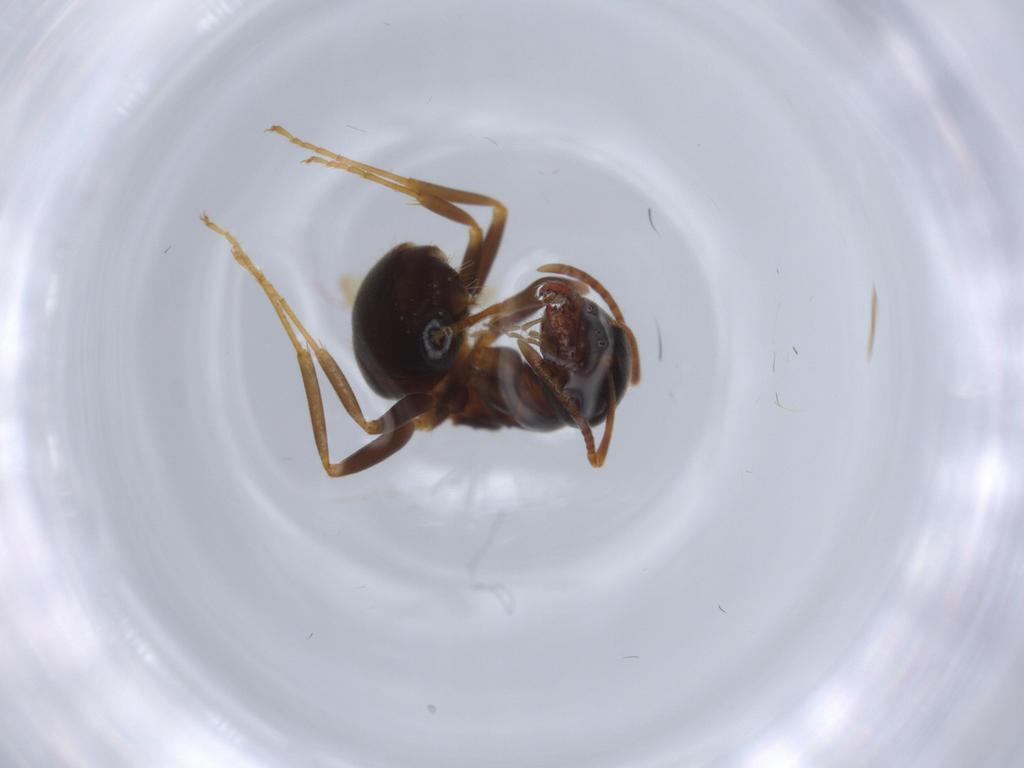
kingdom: Animalia
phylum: Arthropoda
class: Insecta
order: Hymenoptera
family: Formicidae
